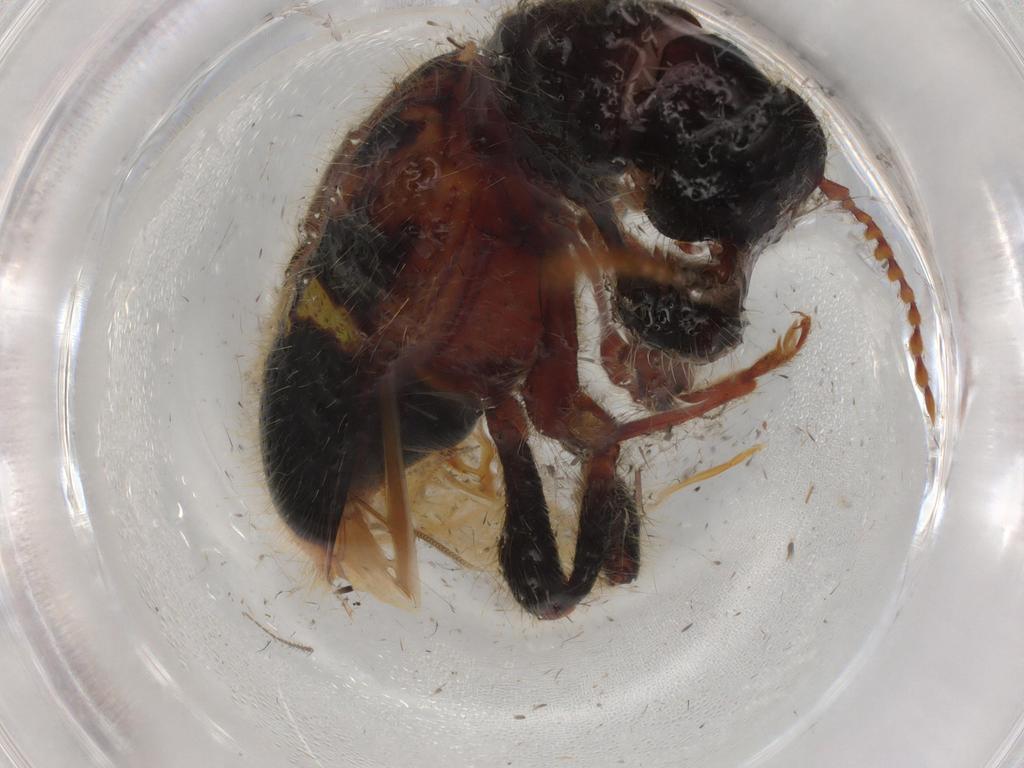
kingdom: Animalia
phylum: Arthropoda
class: Insecta
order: Coleoptera
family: Cleridae
